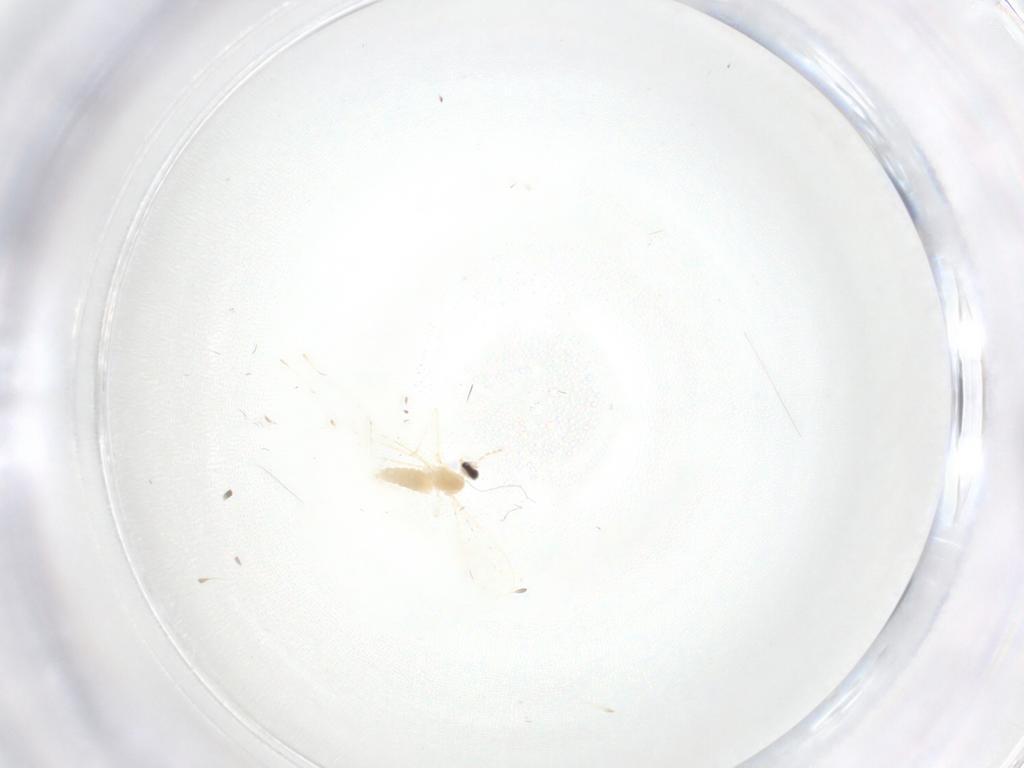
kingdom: Animalia
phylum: Arthropoda
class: Insecta
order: Diptera
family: Cecidomyiidae
